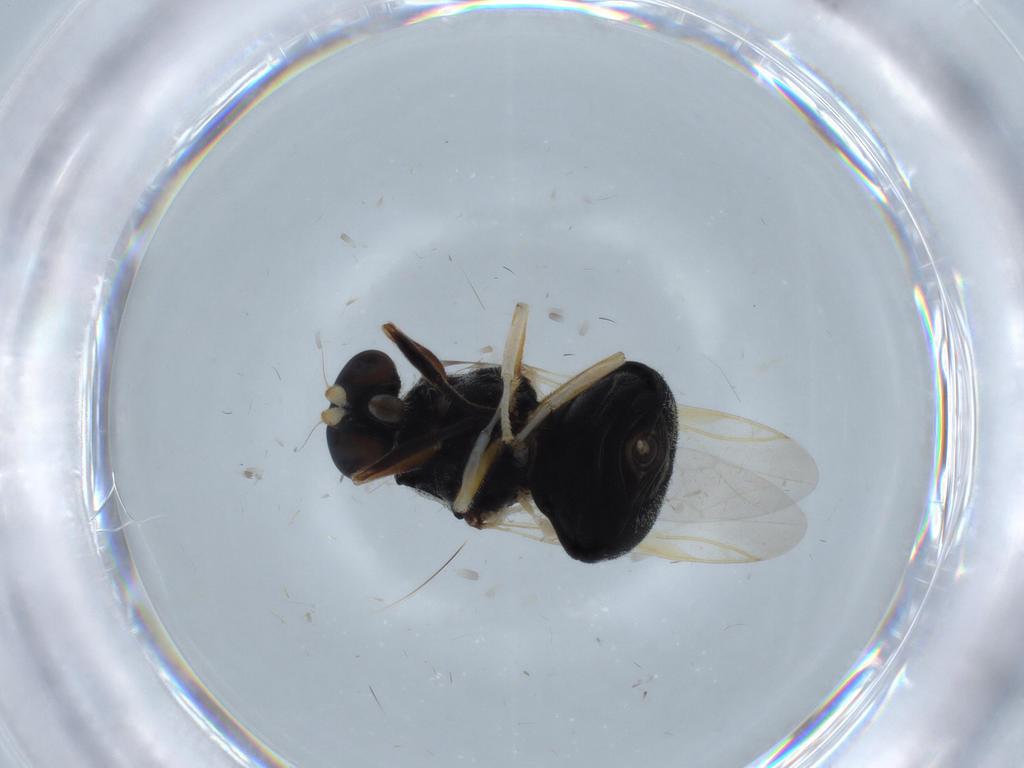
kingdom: Animalia
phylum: Arthropoda
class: Insecta
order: Diptera
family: Stratiomyidae
